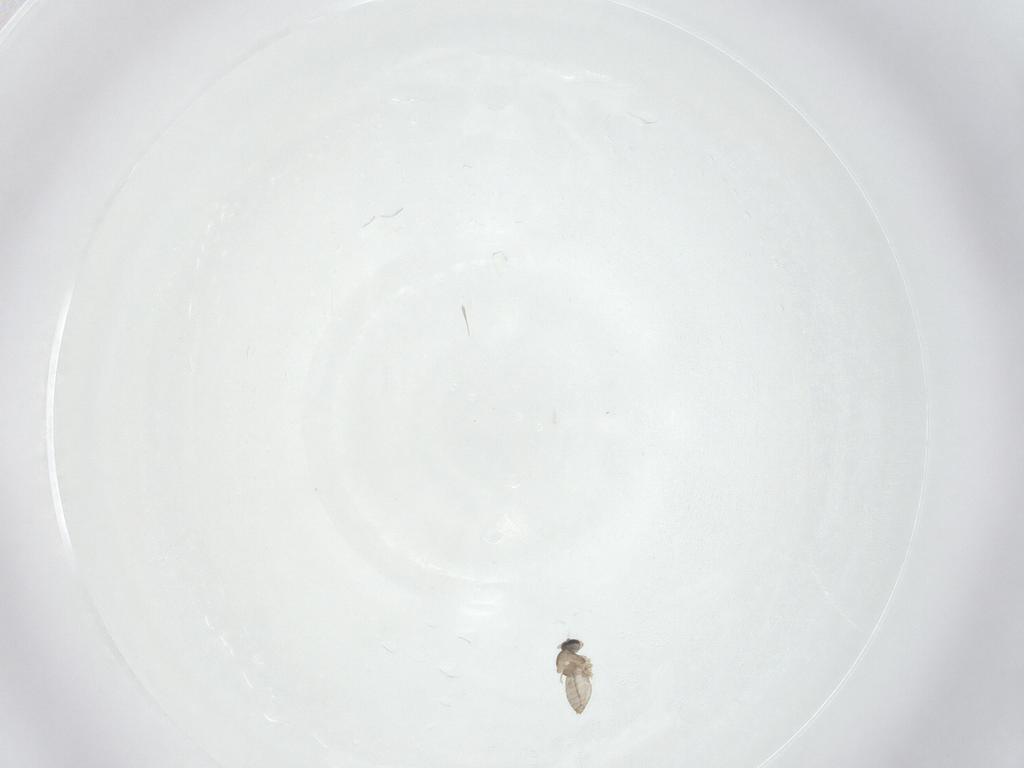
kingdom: Animalia
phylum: Arthropoda
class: Insecta
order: Diptera
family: Cecidomyiidae
